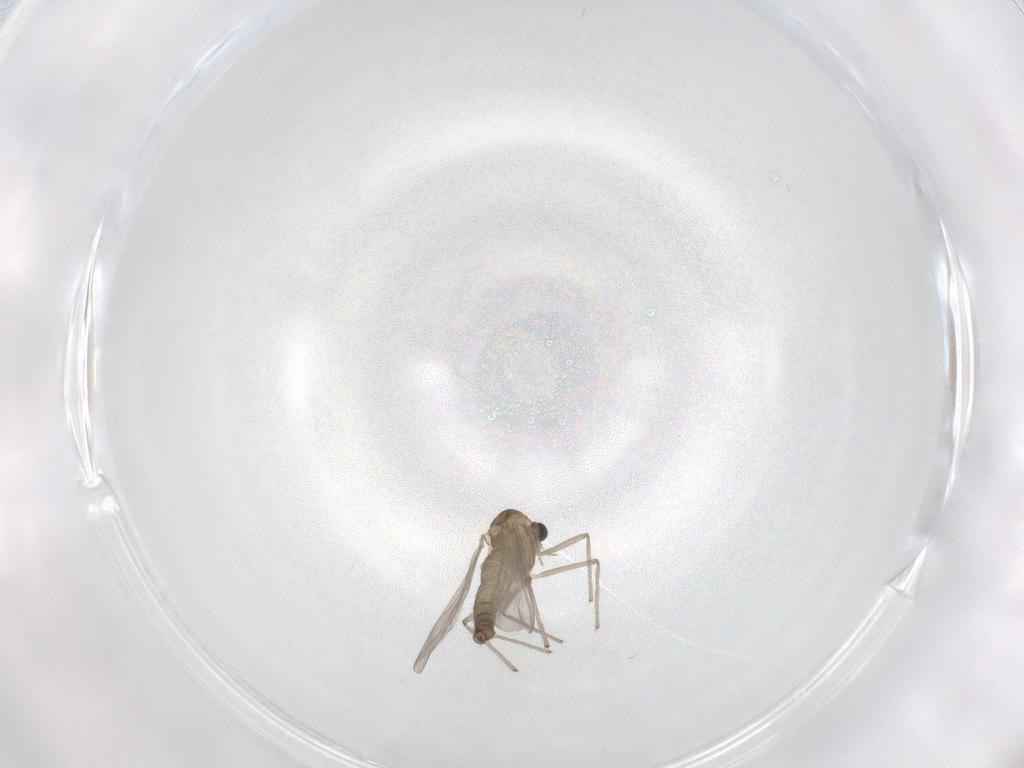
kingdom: Animalia
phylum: Arthropoda
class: Insecta
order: Diptera
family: Chironomidae
